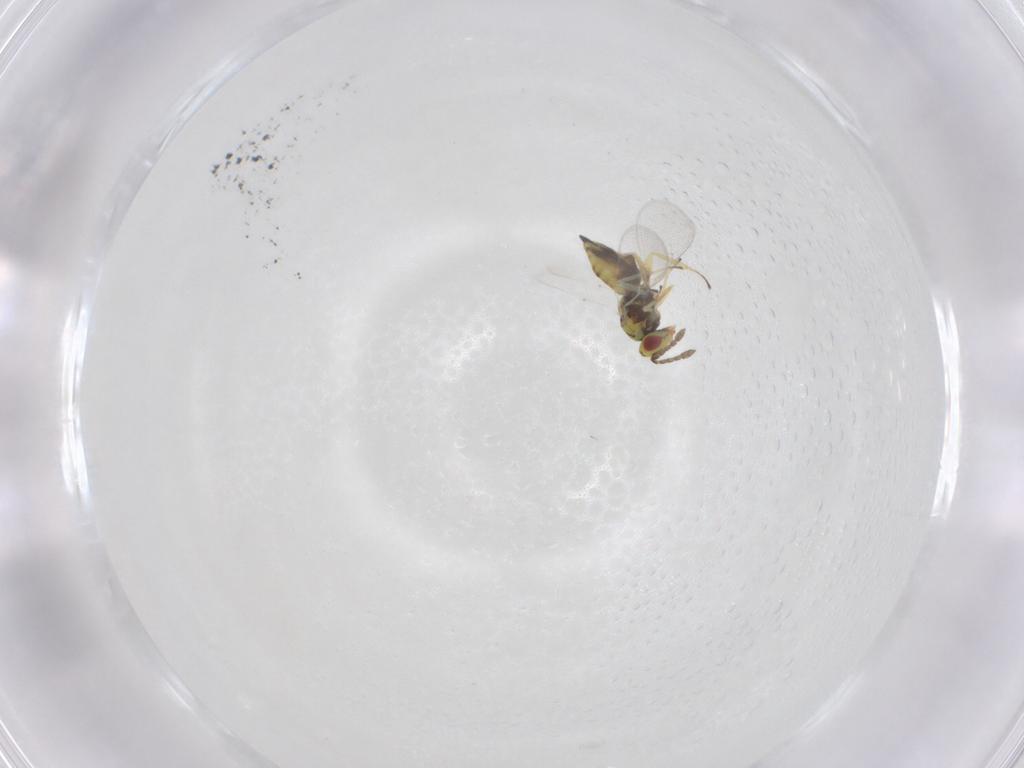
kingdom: Animalia
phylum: Arthropoda
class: Insecta
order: Hymenoptera
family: Eulophidae
